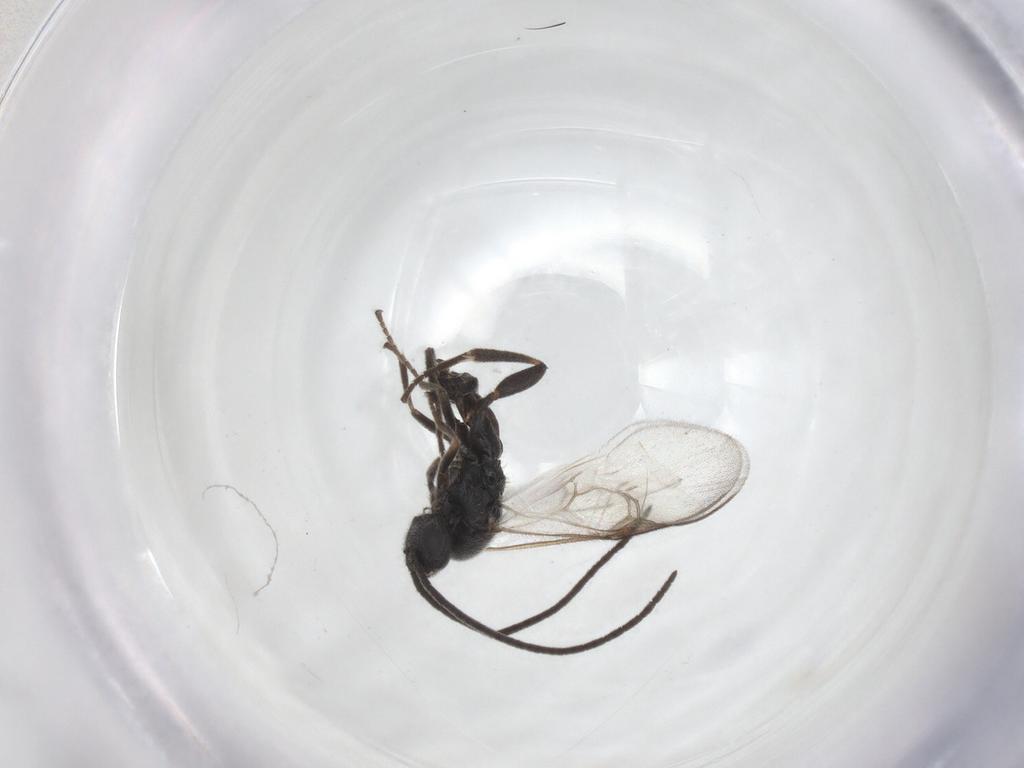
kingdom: Animalia
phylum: Arthropoda
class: Insecta
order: Hymenoptera
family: Braconidae
